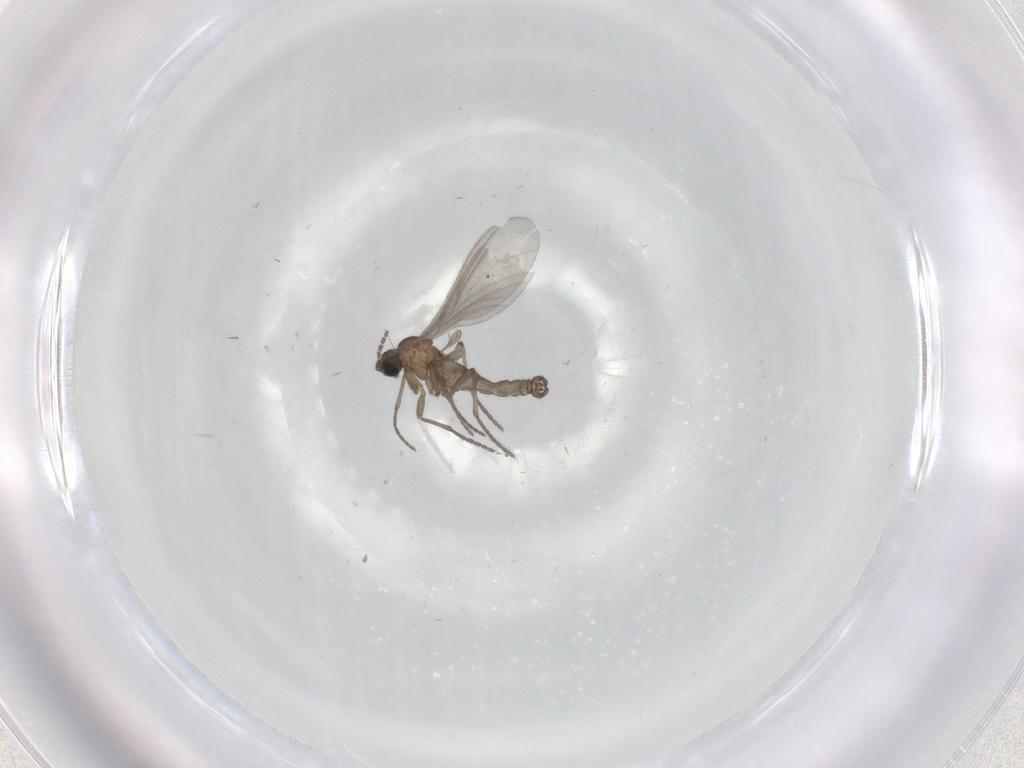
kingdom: Animalia
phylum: Arthropoda
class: Insecta
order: Diptera
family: Sciaridae
